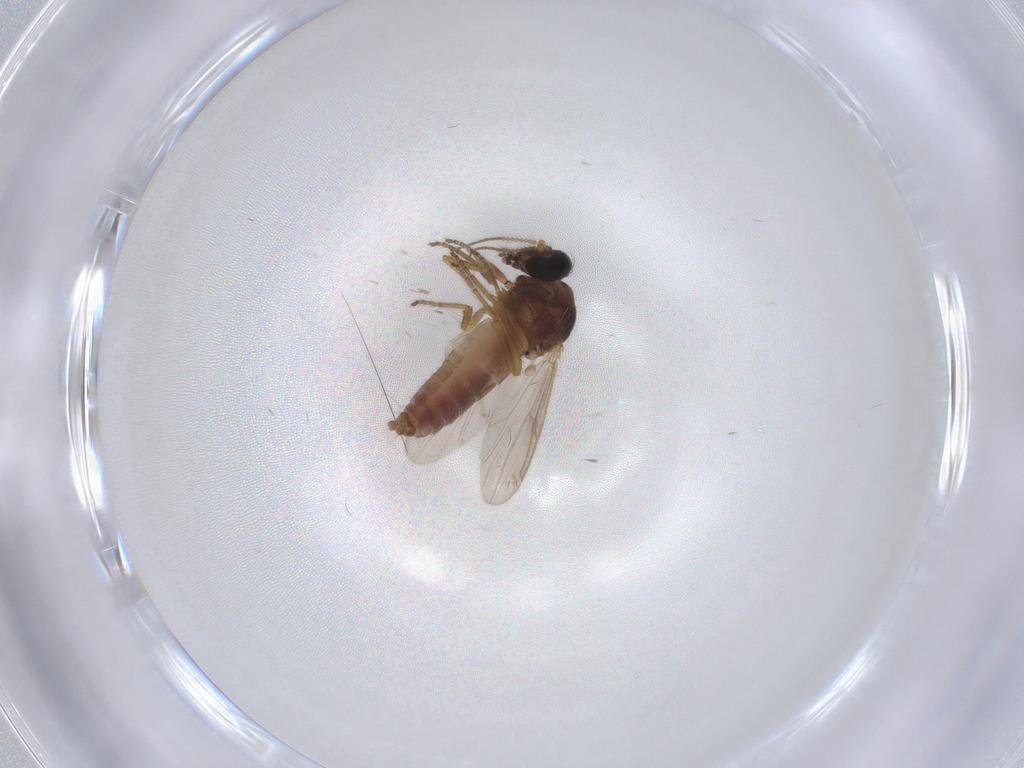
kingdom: Animalia
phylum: Arthropoda
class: Insecta
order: Diptera
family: Ceratopogonidae
